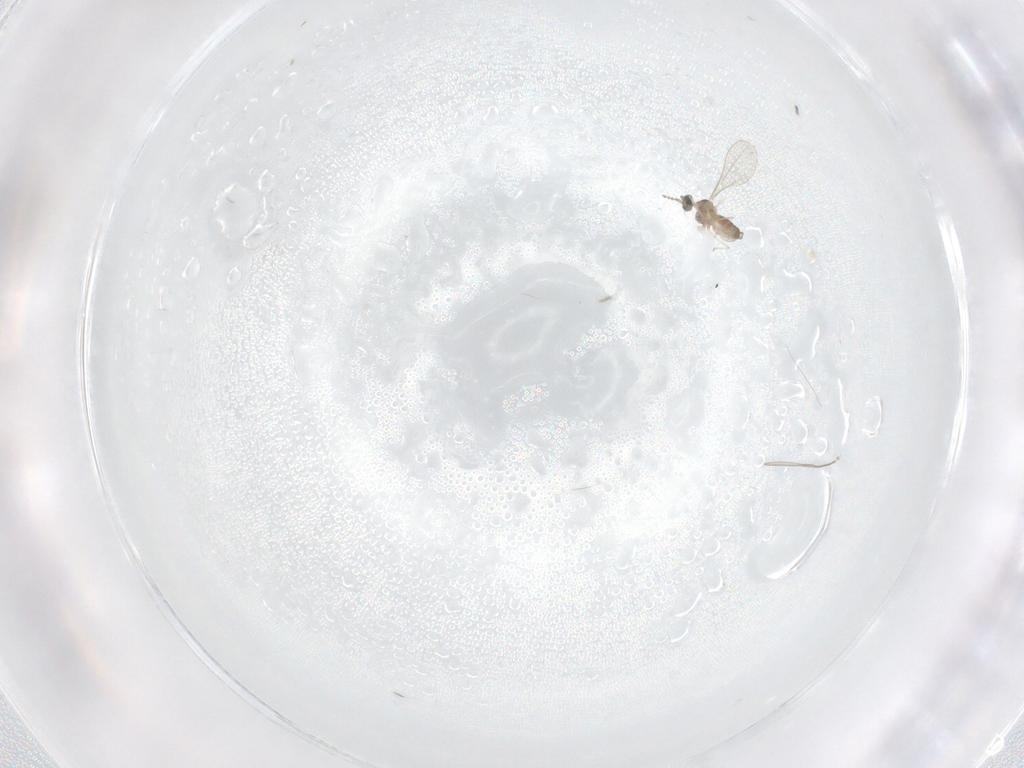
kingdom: Animalia
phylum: Arthropoda
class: Insecta
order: Diptera
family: Cecidomyiidae
